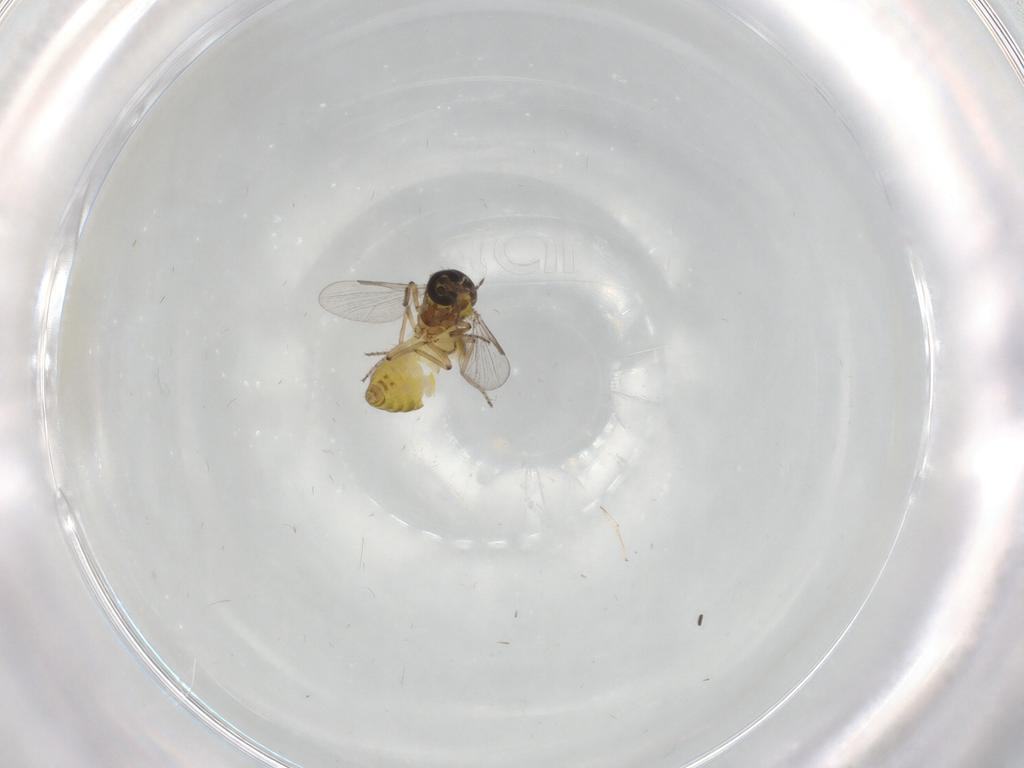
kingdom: Animalia
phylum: Arthropoda
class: Insecta
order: Diptera
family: Ceratopogonidae
